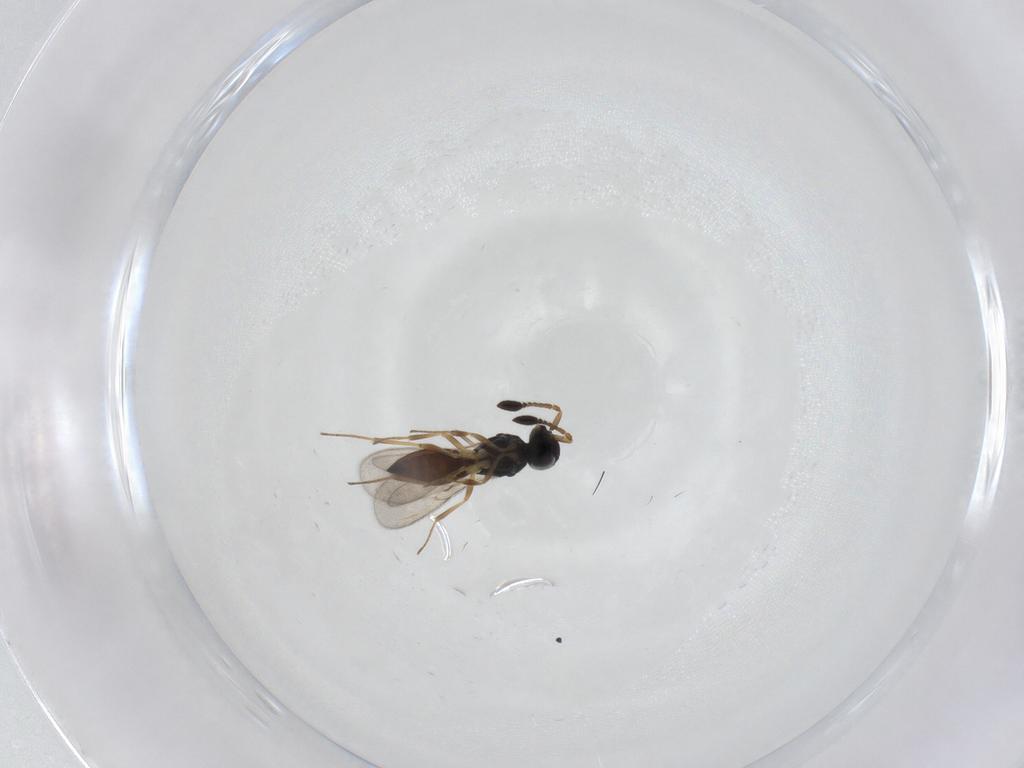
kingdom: Animalia
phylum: Arthropoda
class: Insecta
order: Hymenoptera
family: Scelionidae
